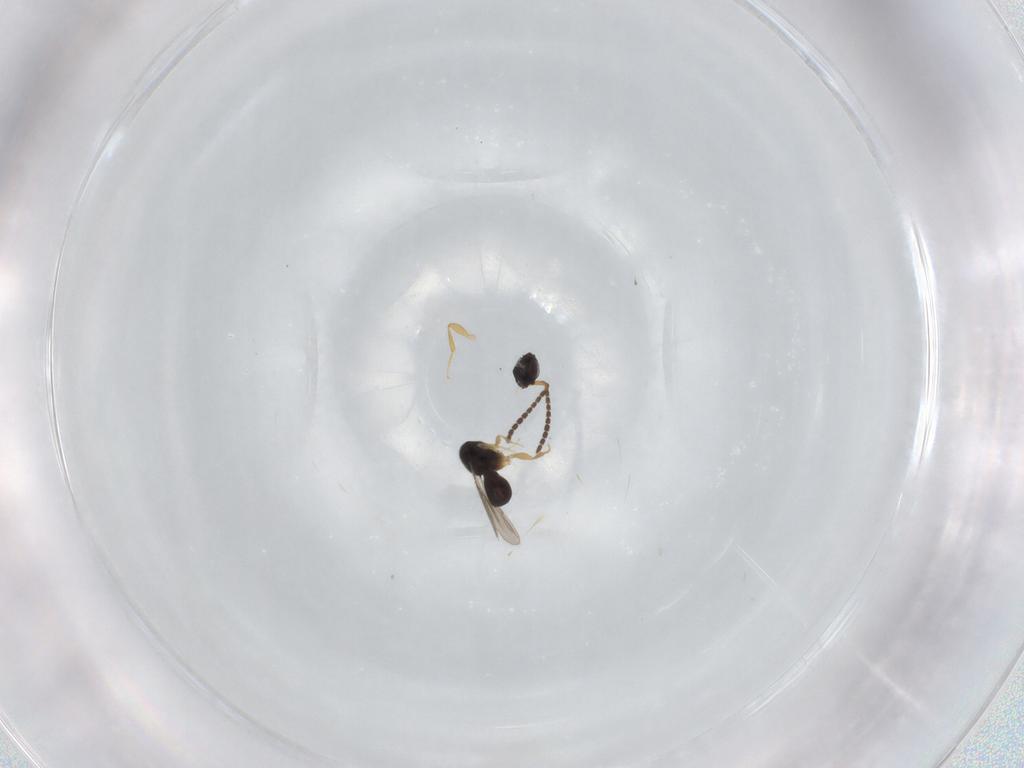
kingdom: Animalia
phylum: Arthropoda
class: Insecta
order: Hymenoptera
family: Ceraphronidae
